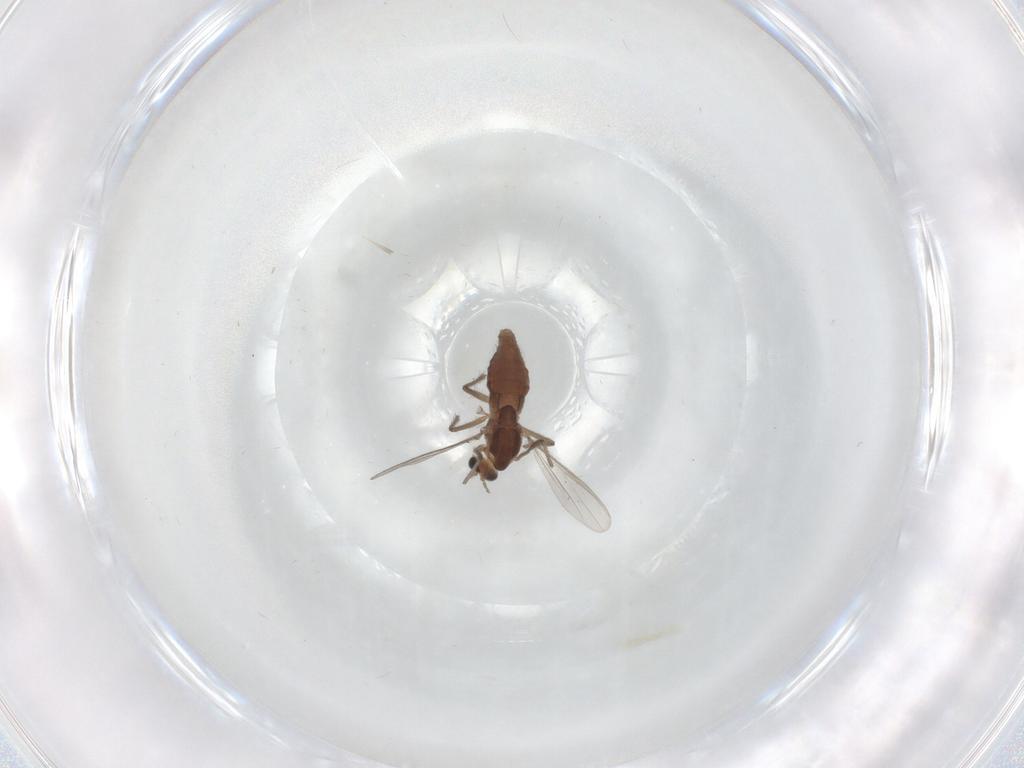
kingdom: Animalia
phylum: Arthropoda
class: Insecta
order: Diptera
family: Chironomidae
